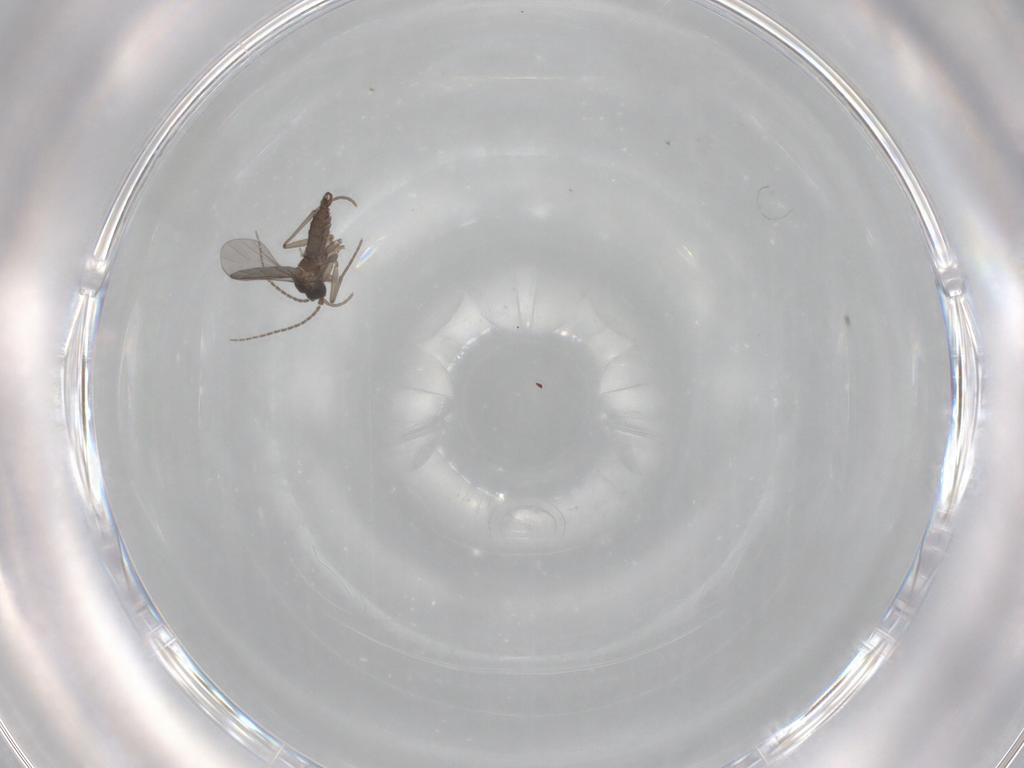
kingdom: Animalia
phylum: Arthropoda
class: Insecta
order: Diptera
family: Sciaridae
